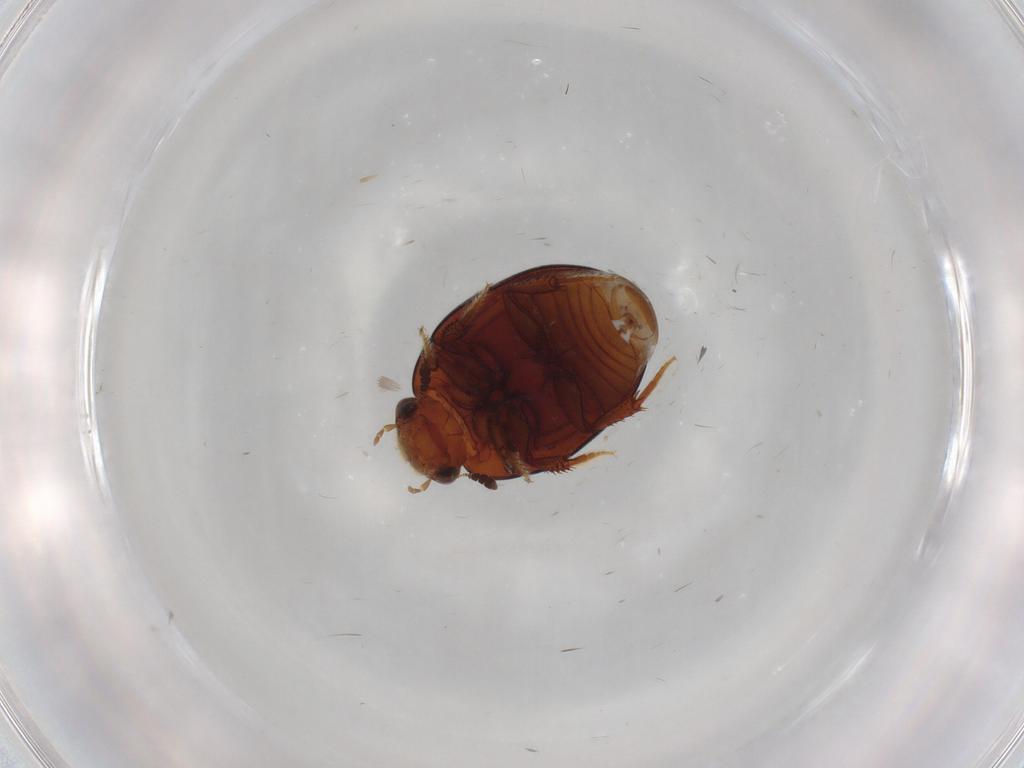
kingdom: Animalia
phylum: Arthropoda
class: Insecta
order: Coleoptera
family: Hydrophilidae
